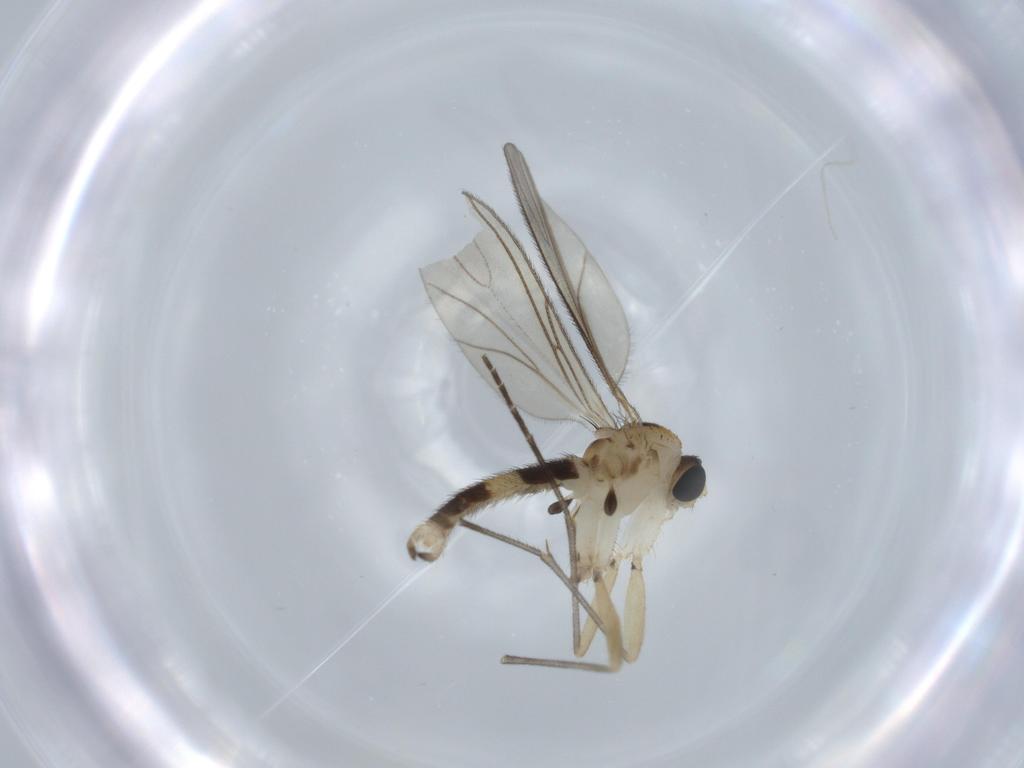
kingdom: Animalia
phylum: Arthropoda
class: Insecta
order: Diptera
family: Sciaridae
